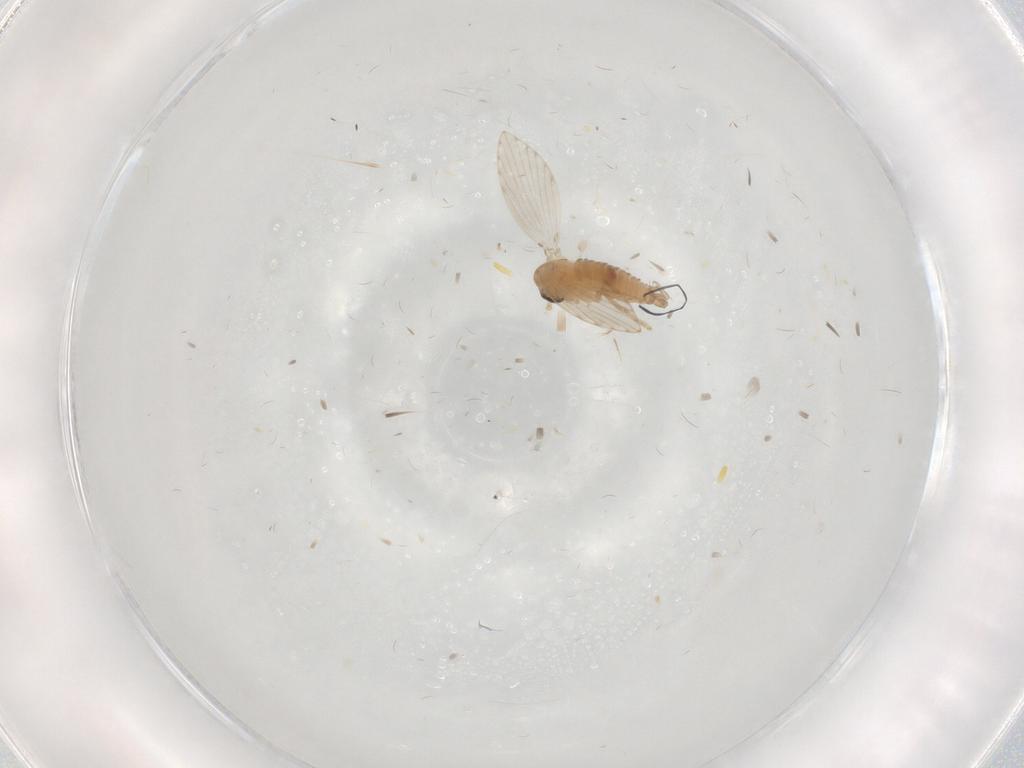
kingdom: Animalia
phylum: Arthropoda
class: Insecta
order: Diptera
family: Psychodidae
